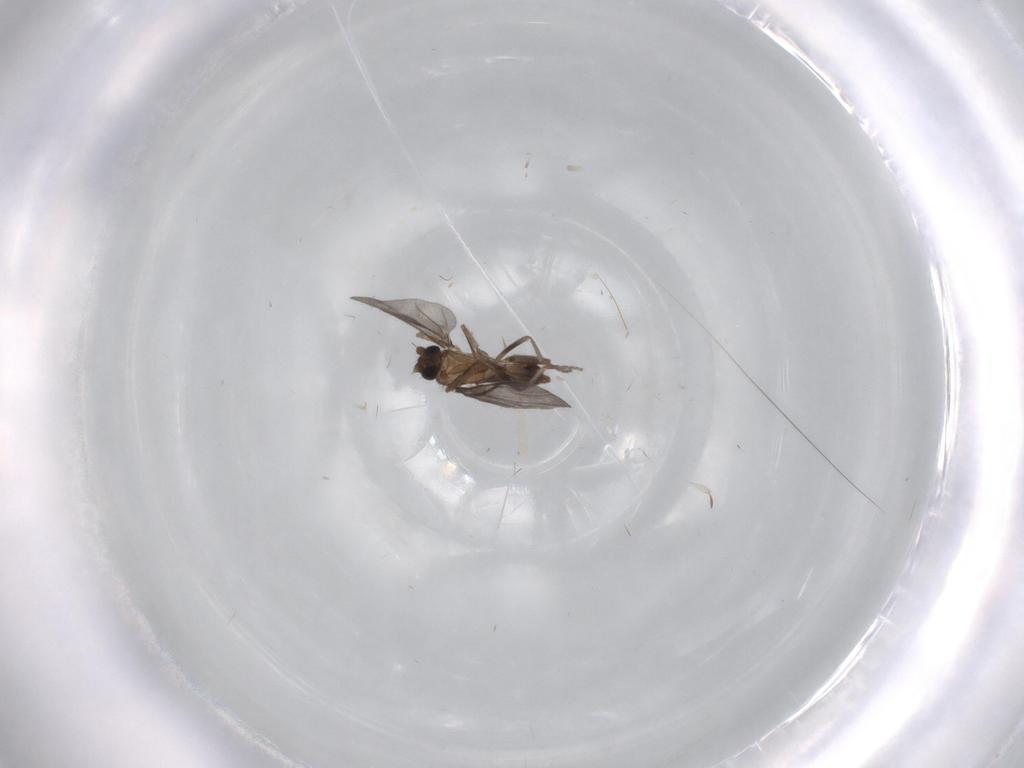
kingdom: Animalia
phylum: Arthropoda
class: Insecta
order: Diptera
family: Phoridae
